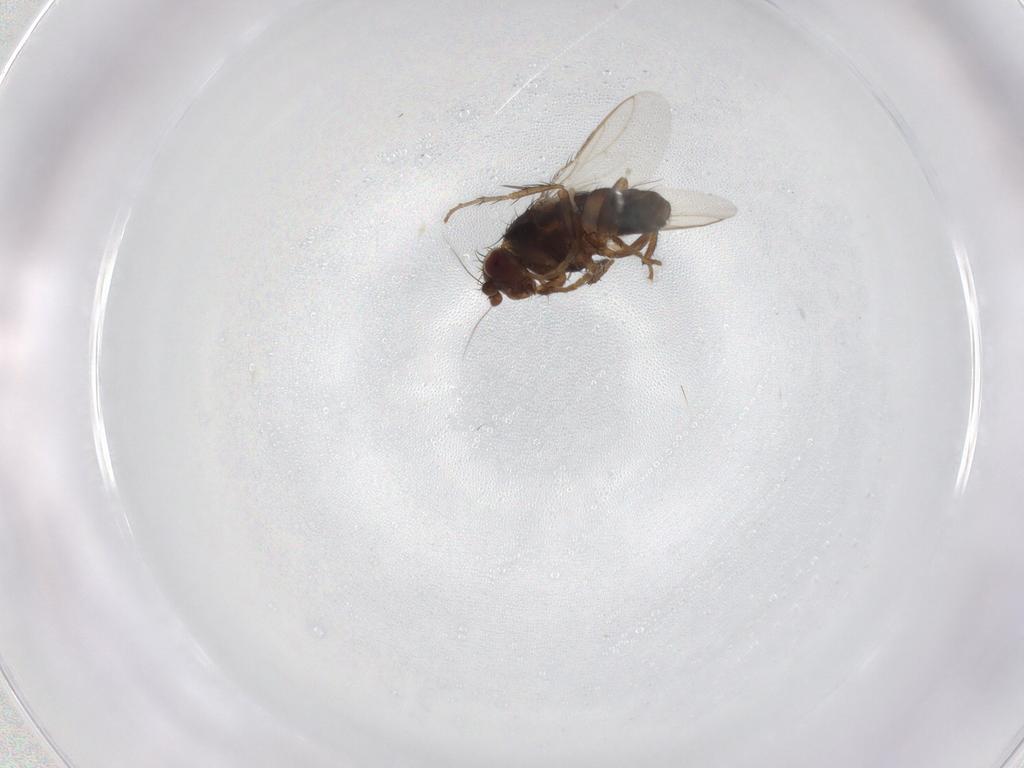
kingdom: Animalia
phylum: Arthropoda
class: Insecta
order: Diptera
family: Sphaeroceridae
